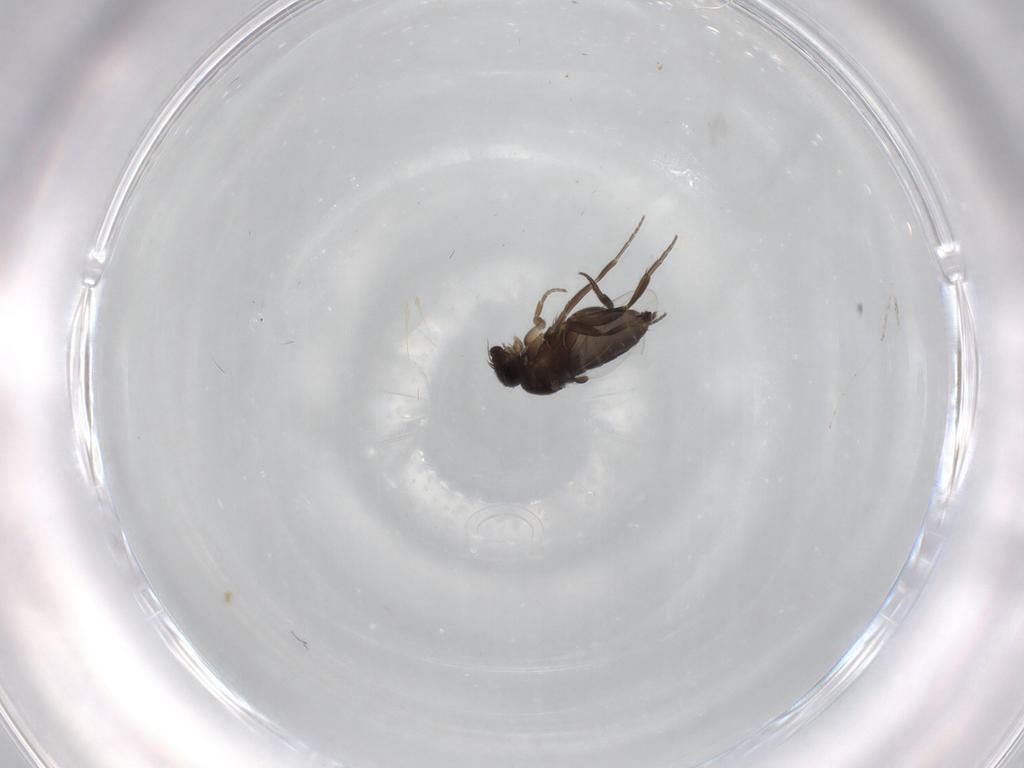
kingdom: Animalia
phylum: Arthropoda
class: Insecta
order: Diptera
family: Phoridae
